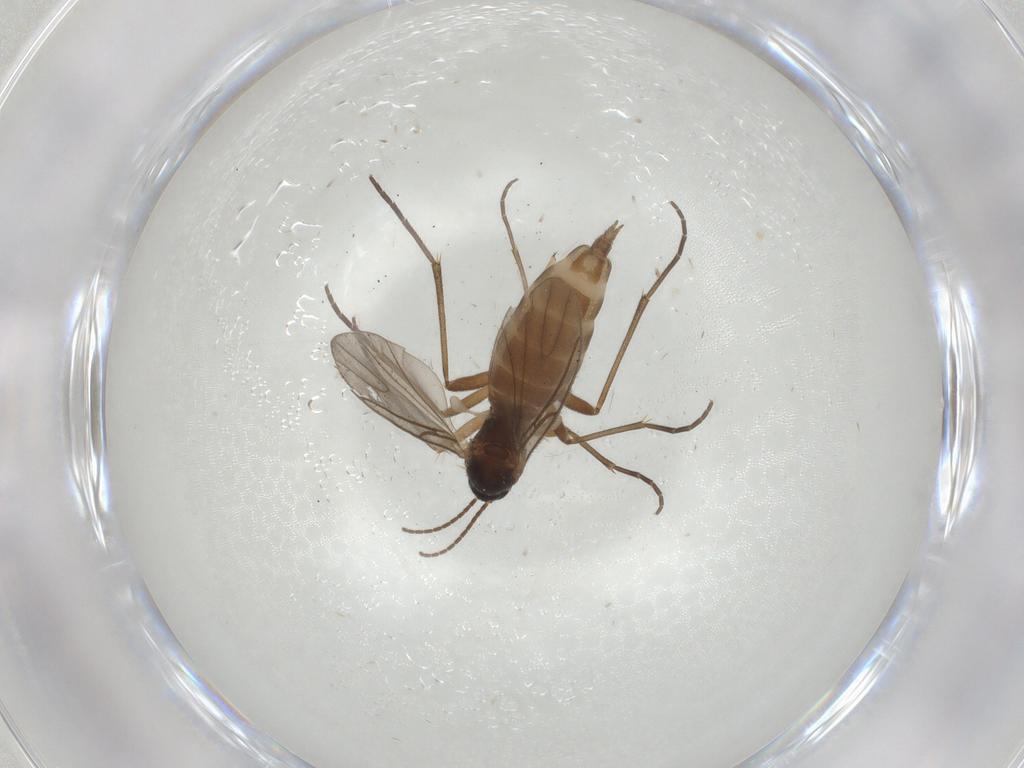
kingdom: Animalia
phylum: Arthropoda
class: Insecta
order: Diptera
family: Sciaridae
